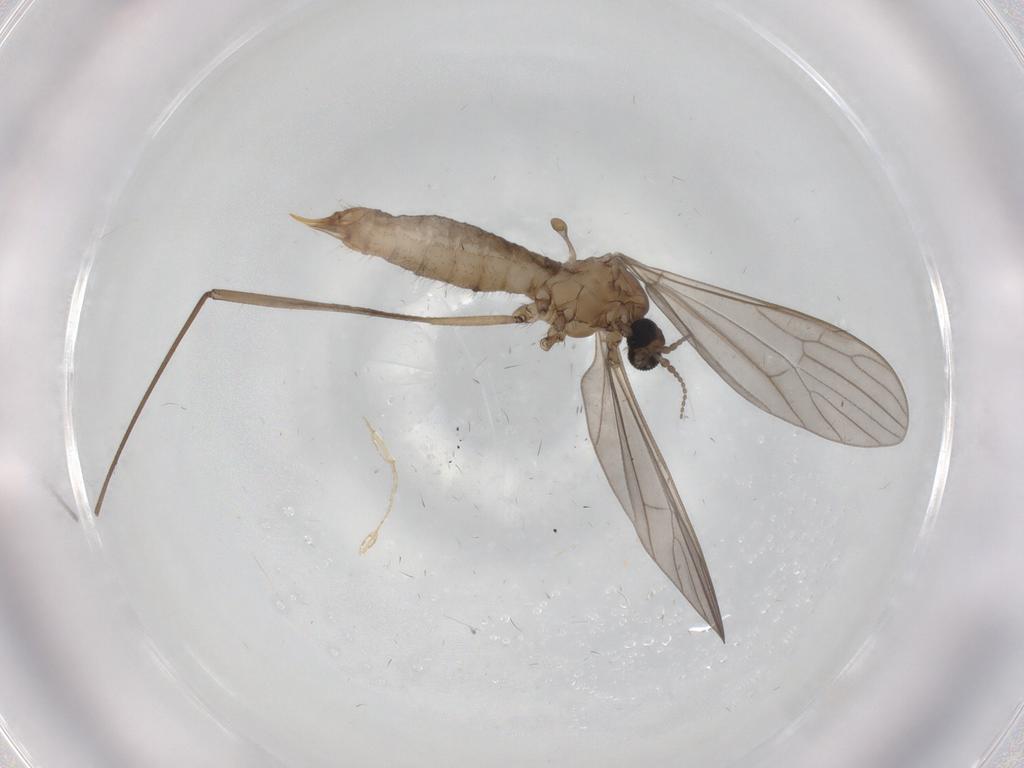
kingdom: Animalia
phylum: Arthropoda
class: Insecta
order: Diptera
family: Limoniidae
